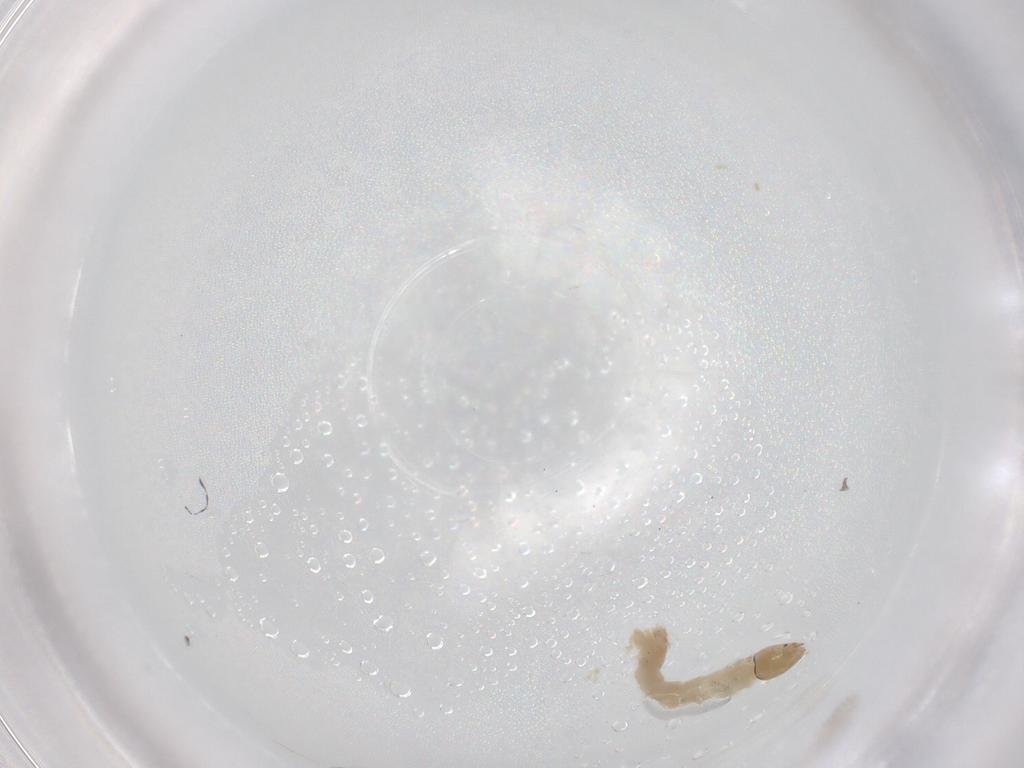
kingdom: Animalia
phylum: Arthropoda
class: Insecta
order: Diptera
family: Chironomidae
